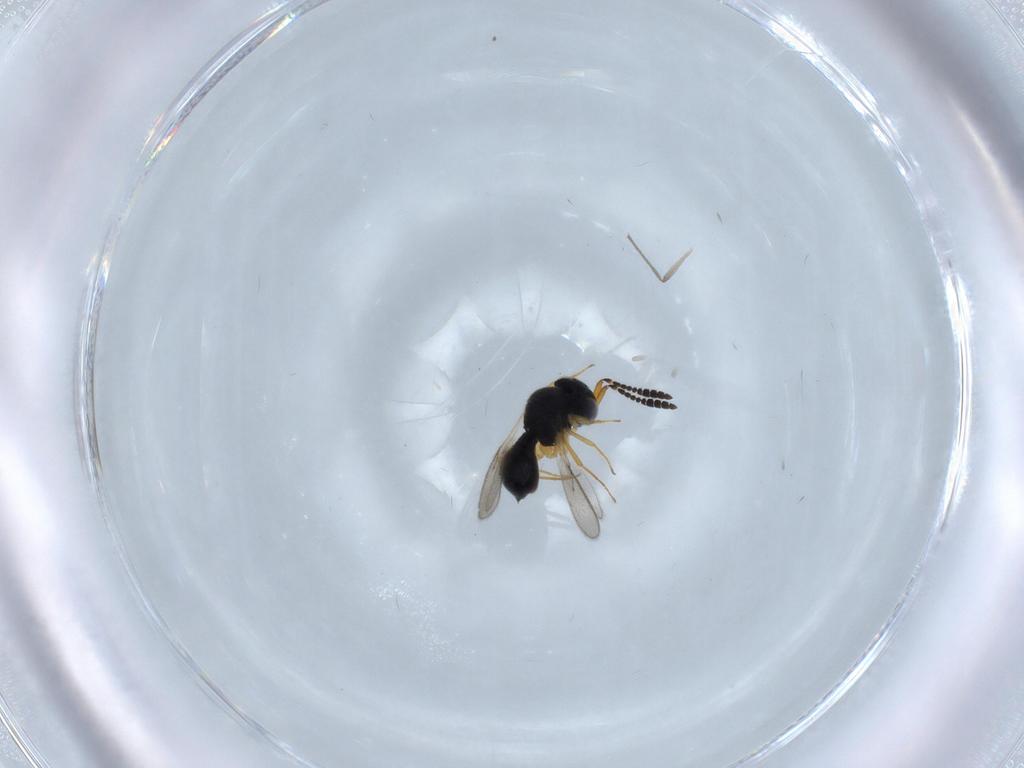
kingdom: Animalia
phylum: Arthropoda
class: Insecta
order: Hymenoptera
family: Scelionidae
